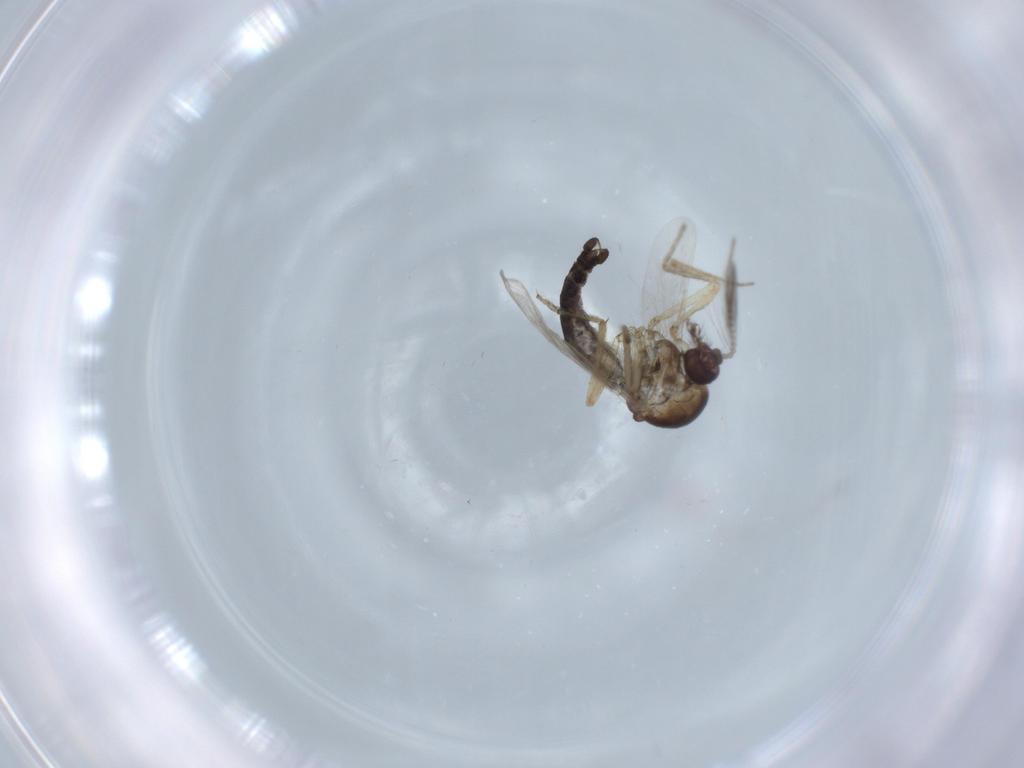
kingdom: Animalia
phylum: Arthropoda
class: Insecta
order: Diptera
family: Ceratopogonidae
